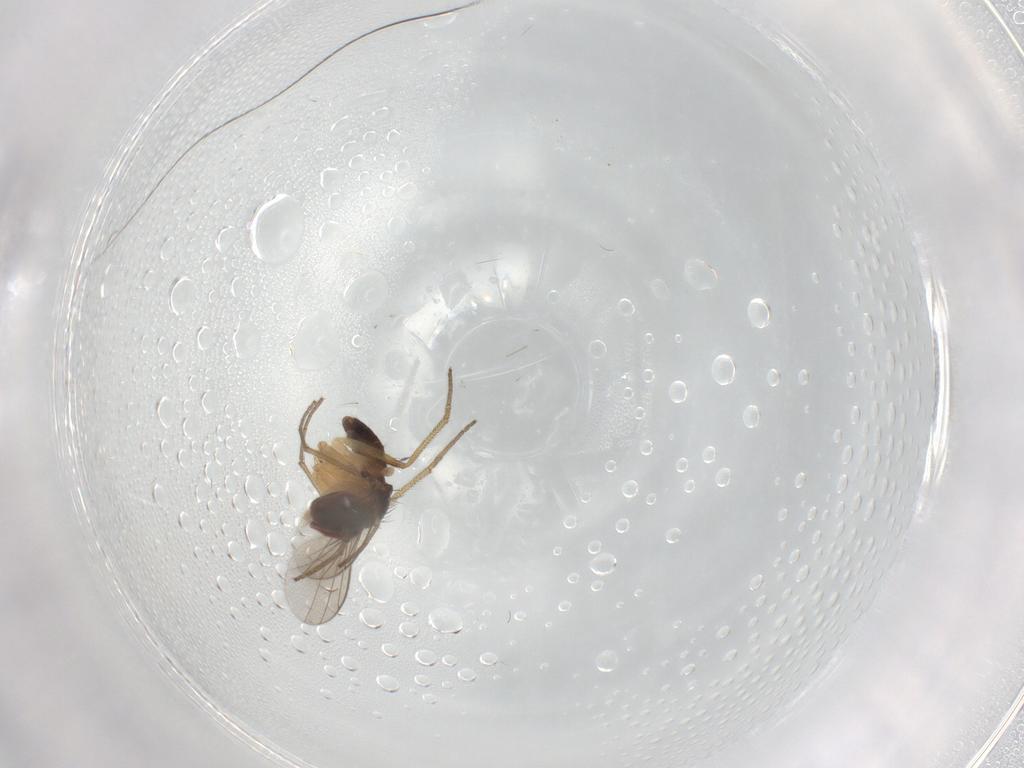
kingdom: Animalia
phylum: Arthropoda
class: Insecta
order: Diptera
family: Dolichopodidae
